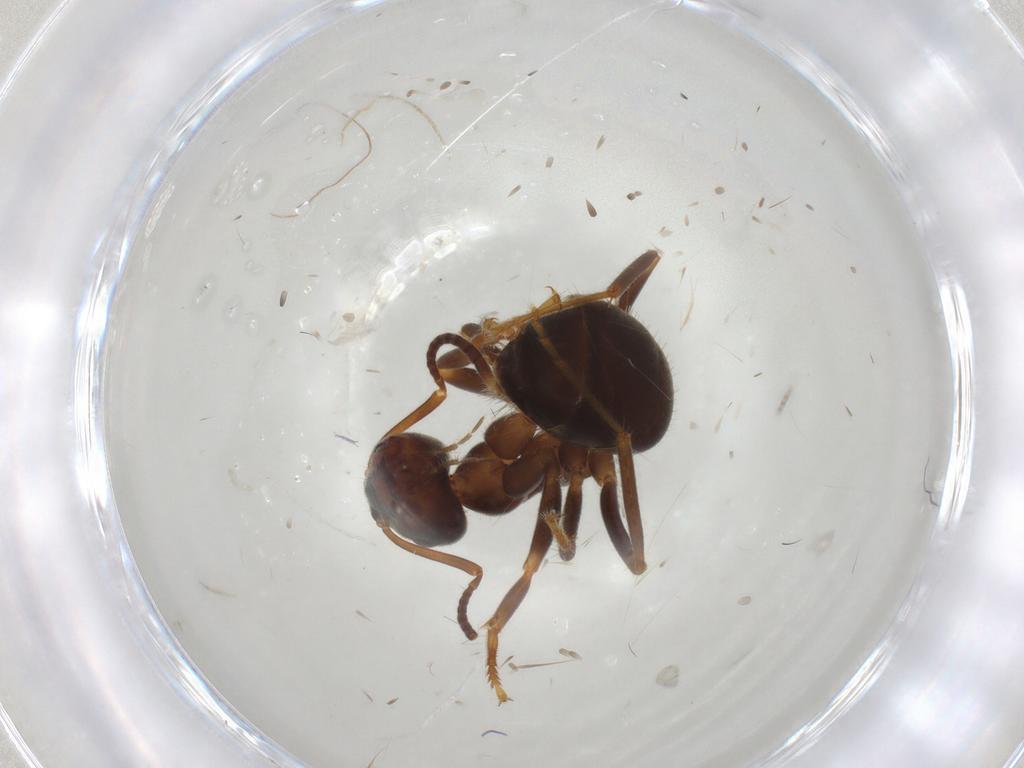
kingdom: Animalia
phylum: Arthropoda
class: Insecta
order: Hymenoptera
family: Formicidae
